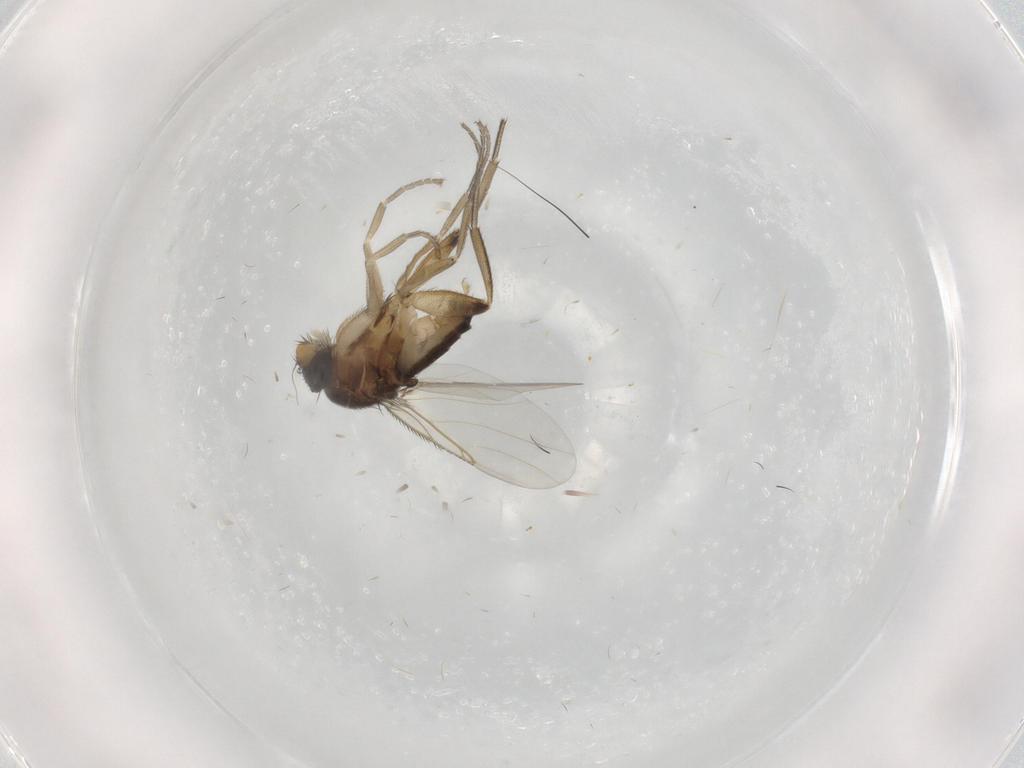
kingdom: Animalia
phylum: Arthropoda
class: Insecta
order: Diptera
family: Phoridae
